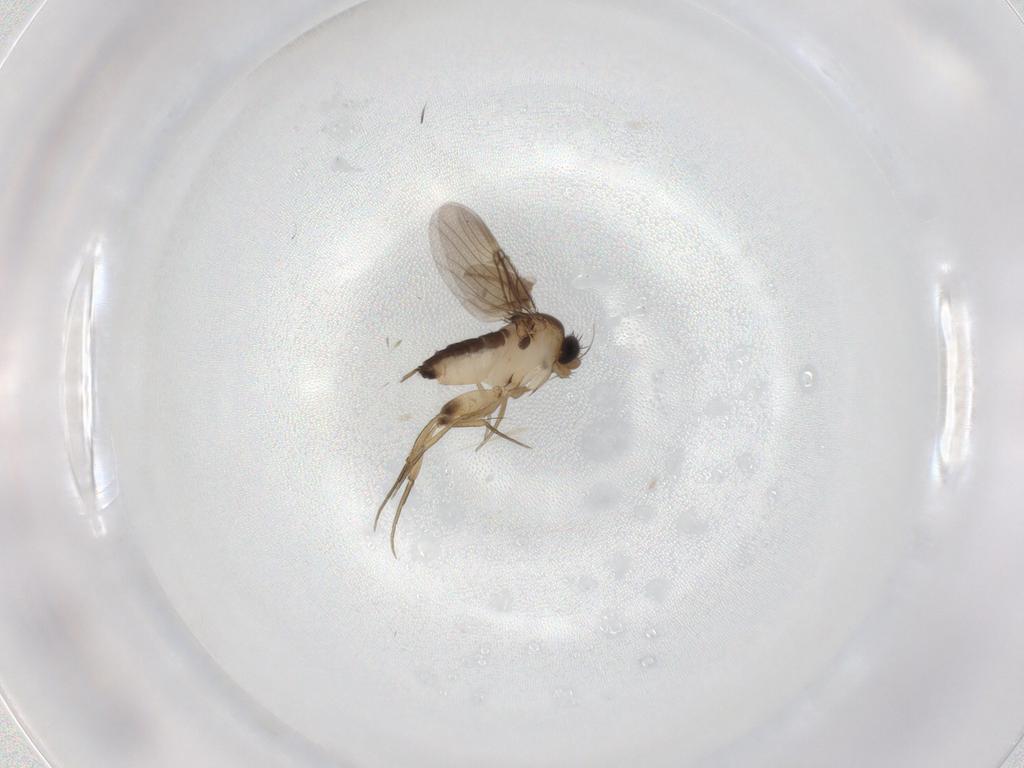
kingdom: Animalia
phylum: Arthropoda
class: Insecta
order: Diptera
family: Phoridae
